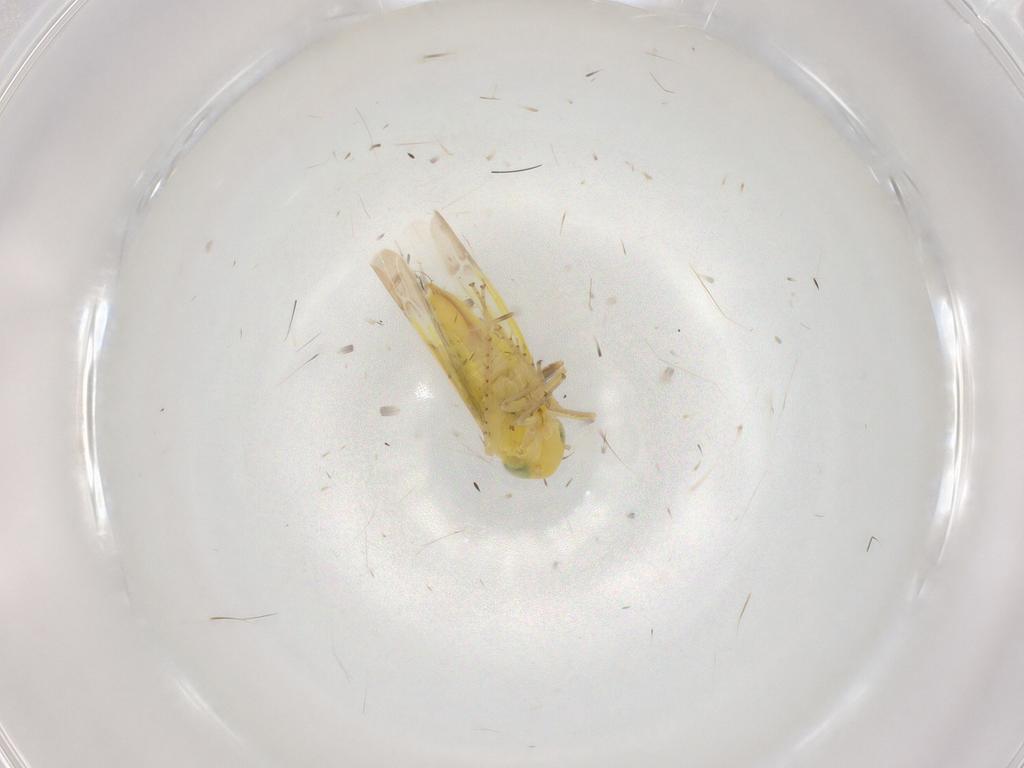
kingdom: Animalia
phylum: Arthropoda
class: Insecta
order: Hemiptera
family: Cicadellidae
